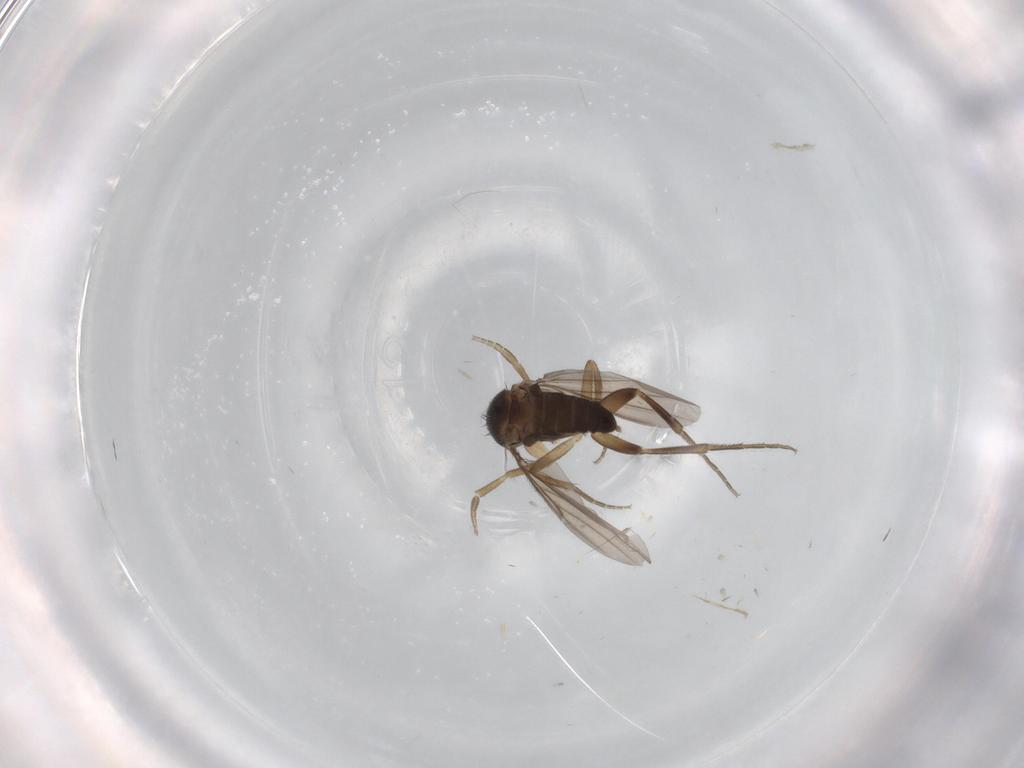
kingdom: Animalia
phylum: Arthropoda
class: Insecta
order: Diptera
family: Phoridae
